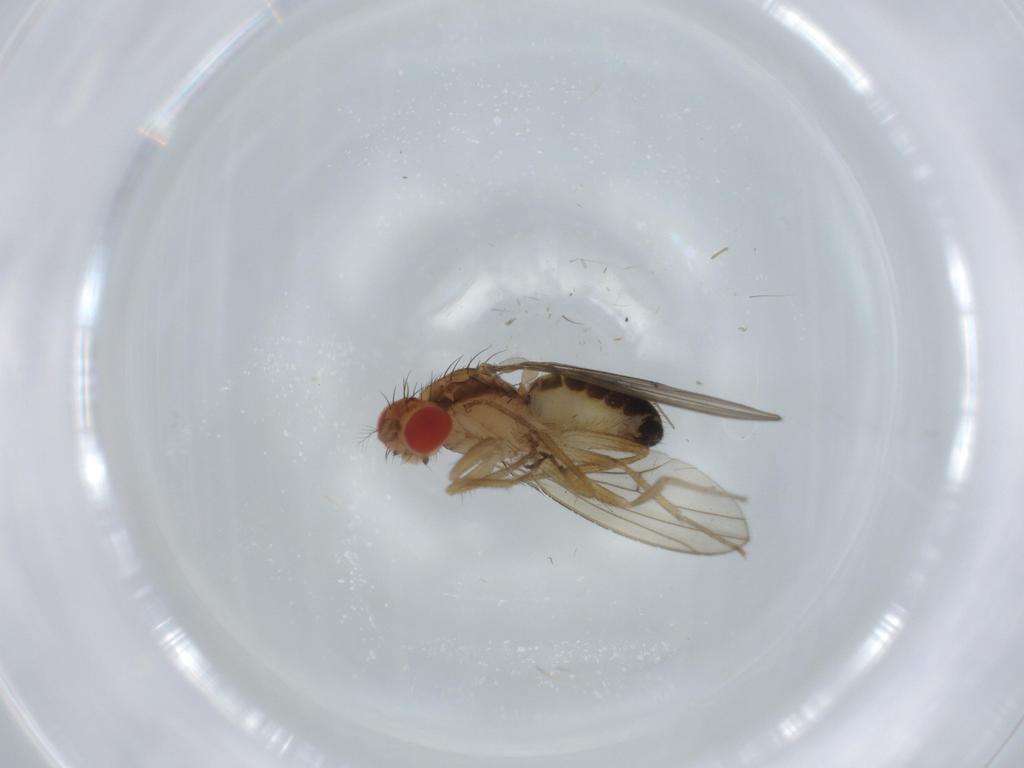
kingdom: Animalia
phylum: Arthropoda
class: Insecta
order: Diptera
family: Drosophilidae
